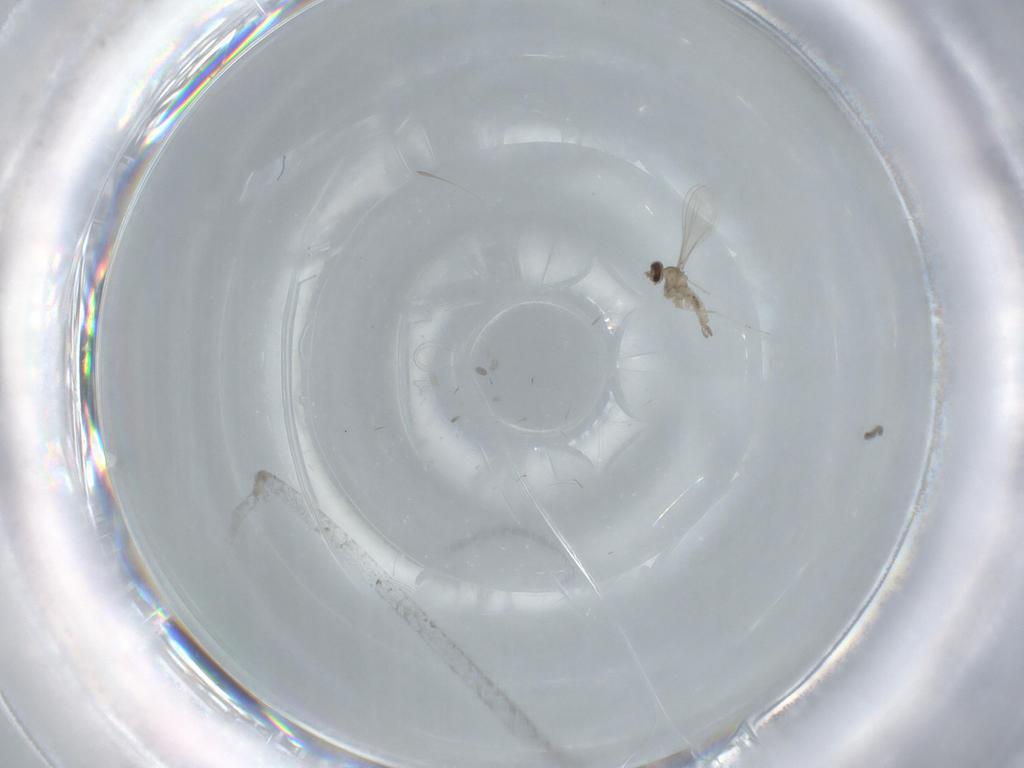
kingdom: Animalia
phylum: Arthropoda
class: Insecta
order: Diptera
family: Cecidomyiidae
